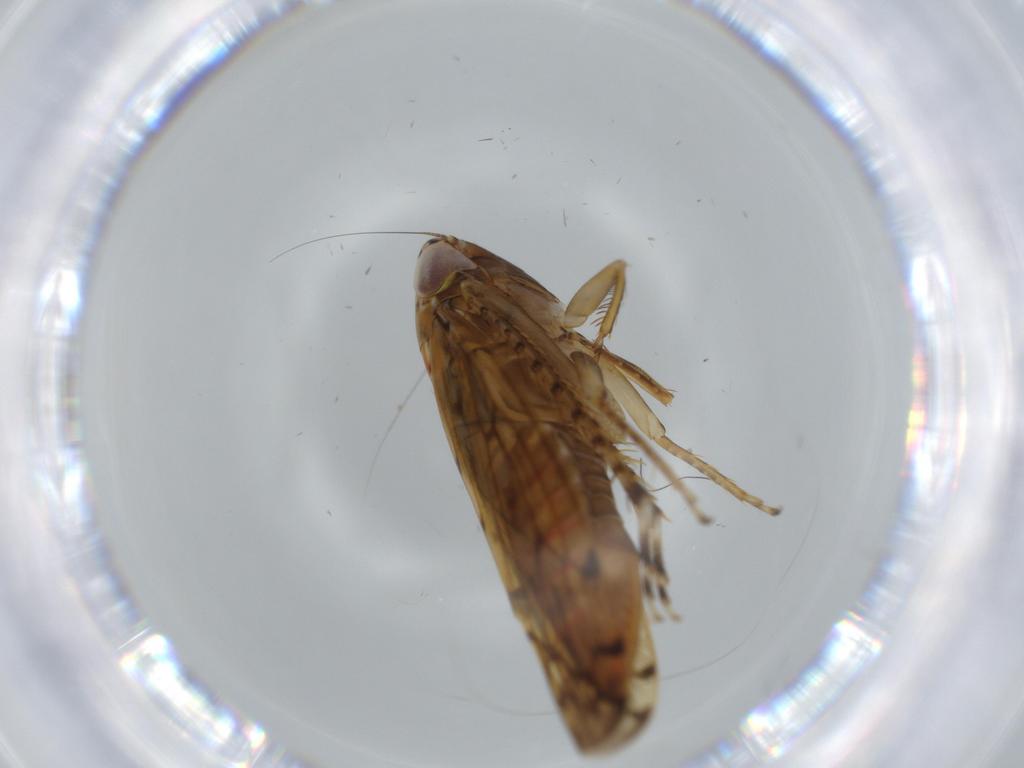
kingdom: Animalia
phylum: Arthropoda
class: Insecta
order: Hemiptera
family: Cicadellidae
